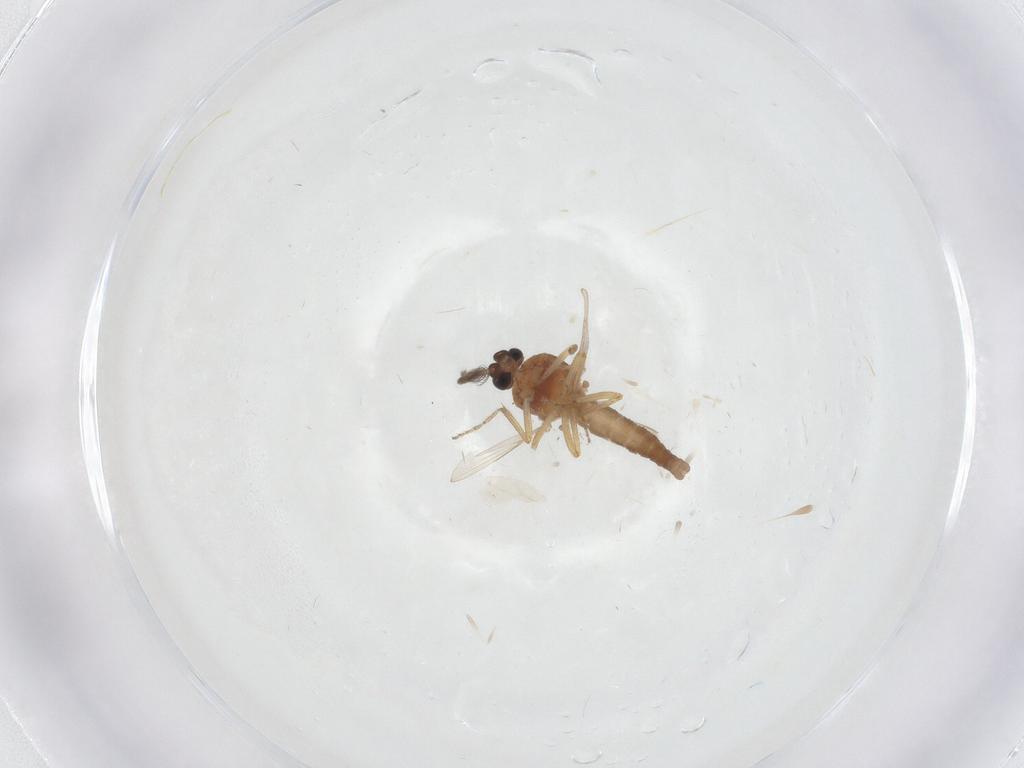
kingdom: Animalia
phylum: Arthropoda
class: Insecta
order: Diptera
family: Ceratopogonidae
